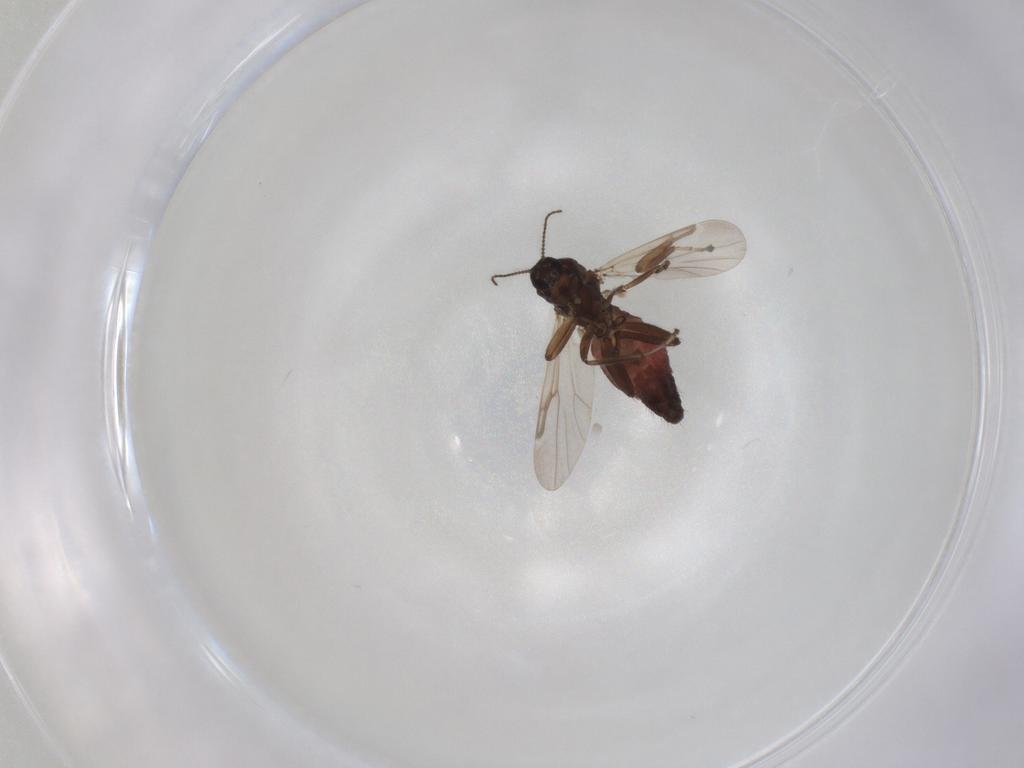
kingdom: Animalia
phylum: Arthropoda
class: Insecta
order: Diptera
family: Ceratopogonidae
